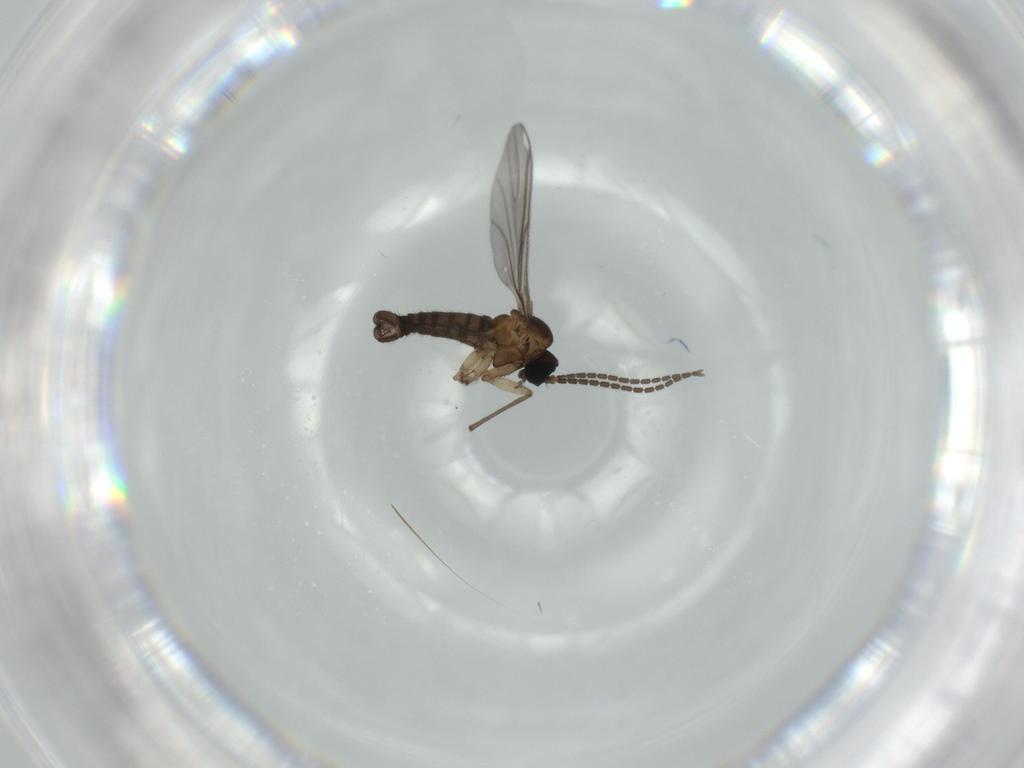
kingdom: Animalia
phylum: Arthropoda
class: Insecta
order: Diptera
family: Sciaridae
